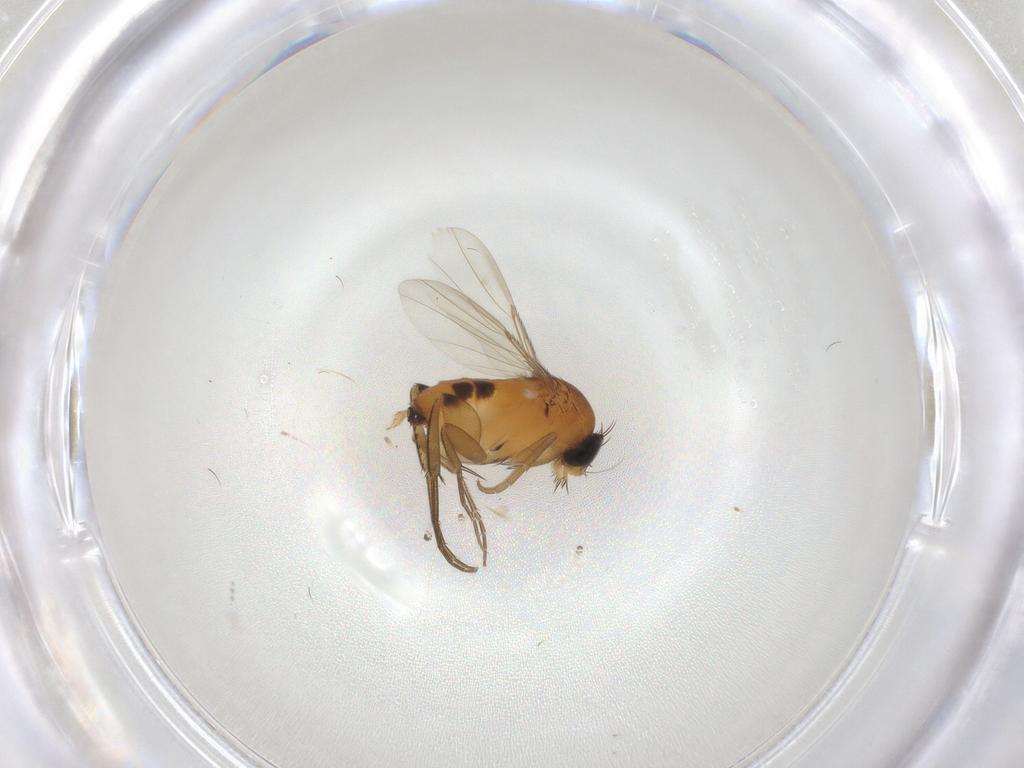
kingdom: Animalia
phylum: Arthropoda
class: Insecta
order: Diptera
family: Phoridae
